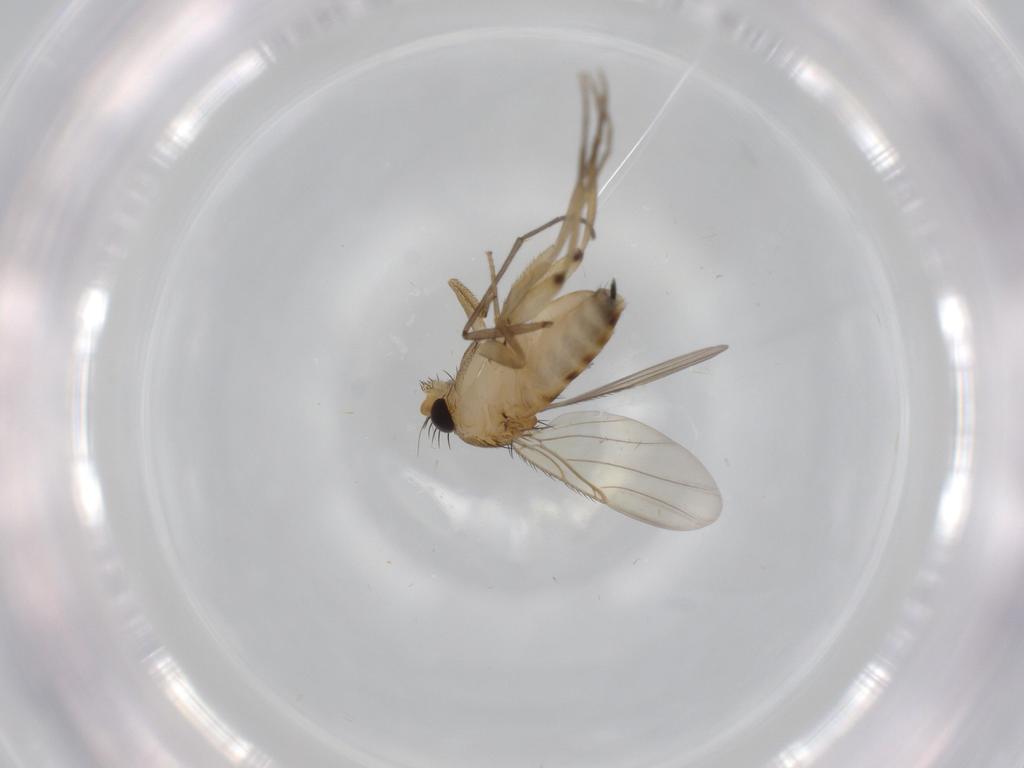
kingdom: Animalia
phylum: Arthropoda
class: Insecta
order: Diptera
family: Phoridae
